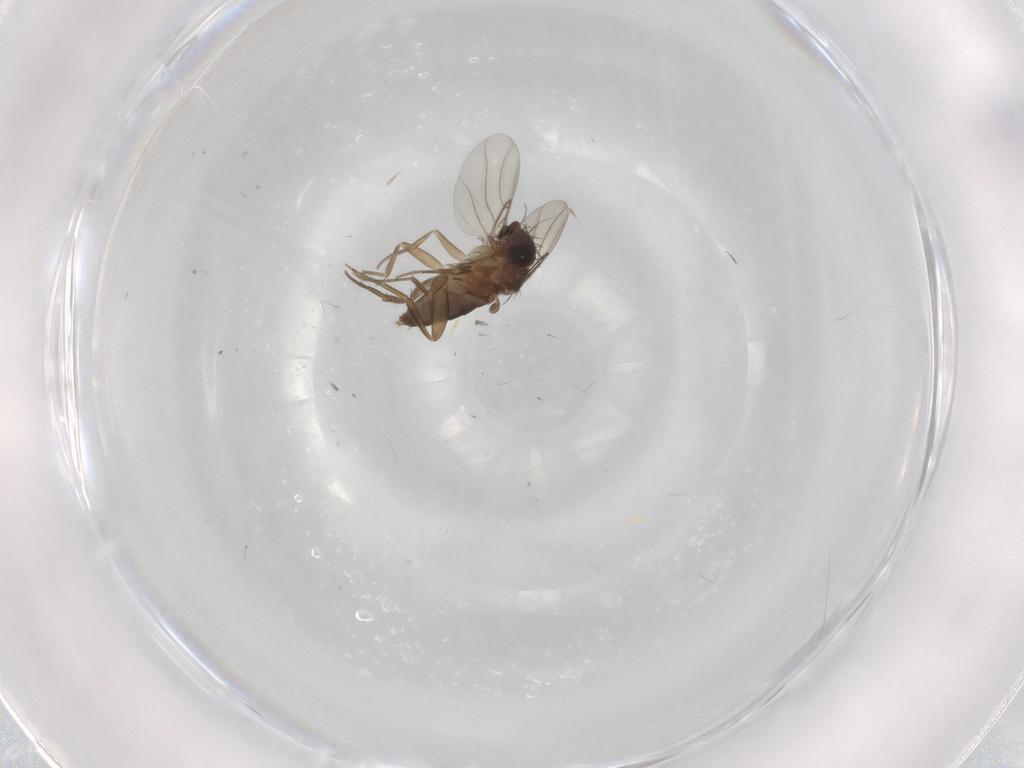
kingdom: Animalia
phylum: Arthropoda
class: Insecta
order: Diptera
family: Phoridae
